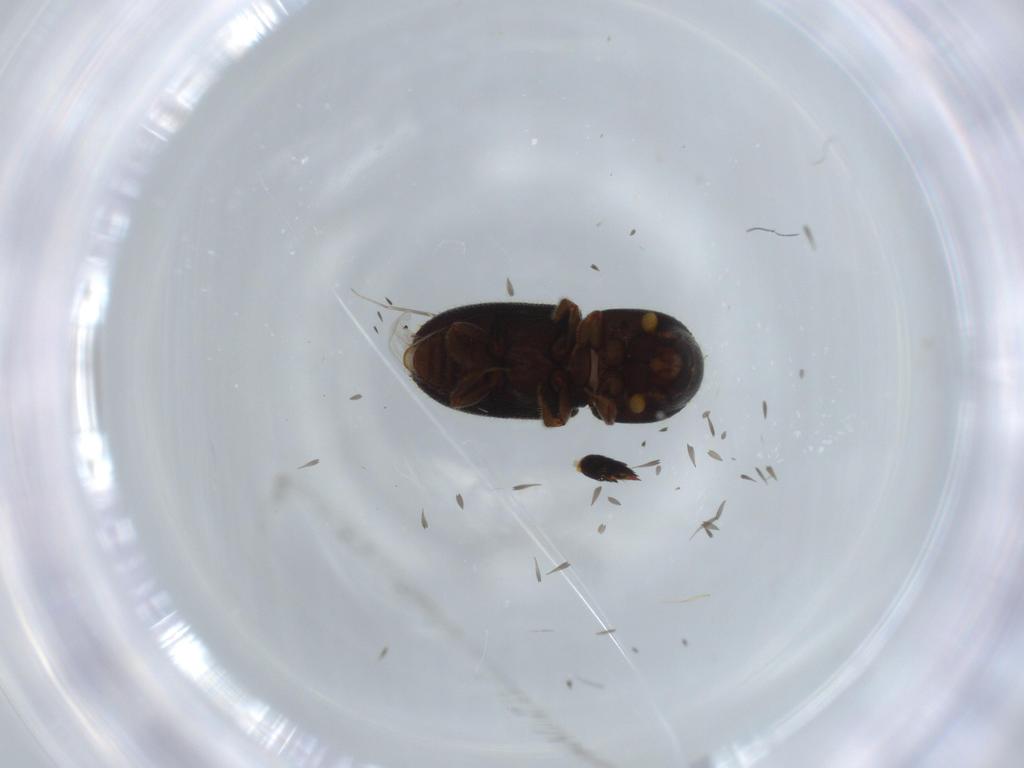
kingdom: Animalia
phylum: Arthropoda
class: Insecta
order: Coleoptera
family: Curculionidae
